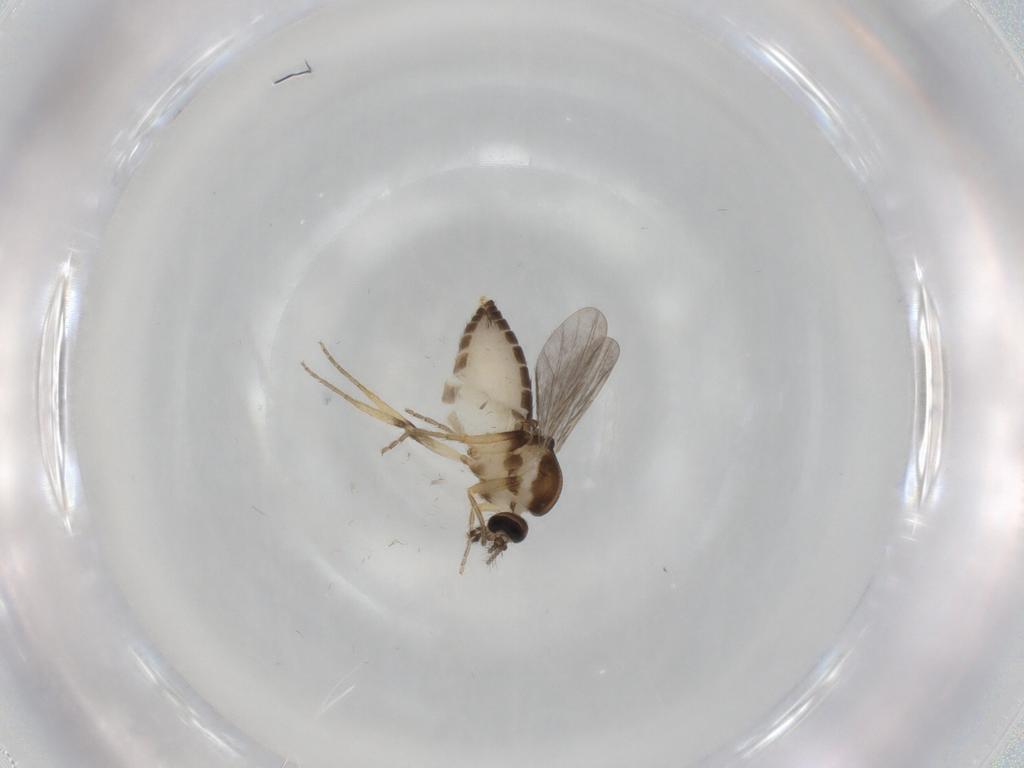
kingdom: Animalia
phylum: Arthropoda
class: Insecta
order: Diptera
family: Ceratopogonidae
